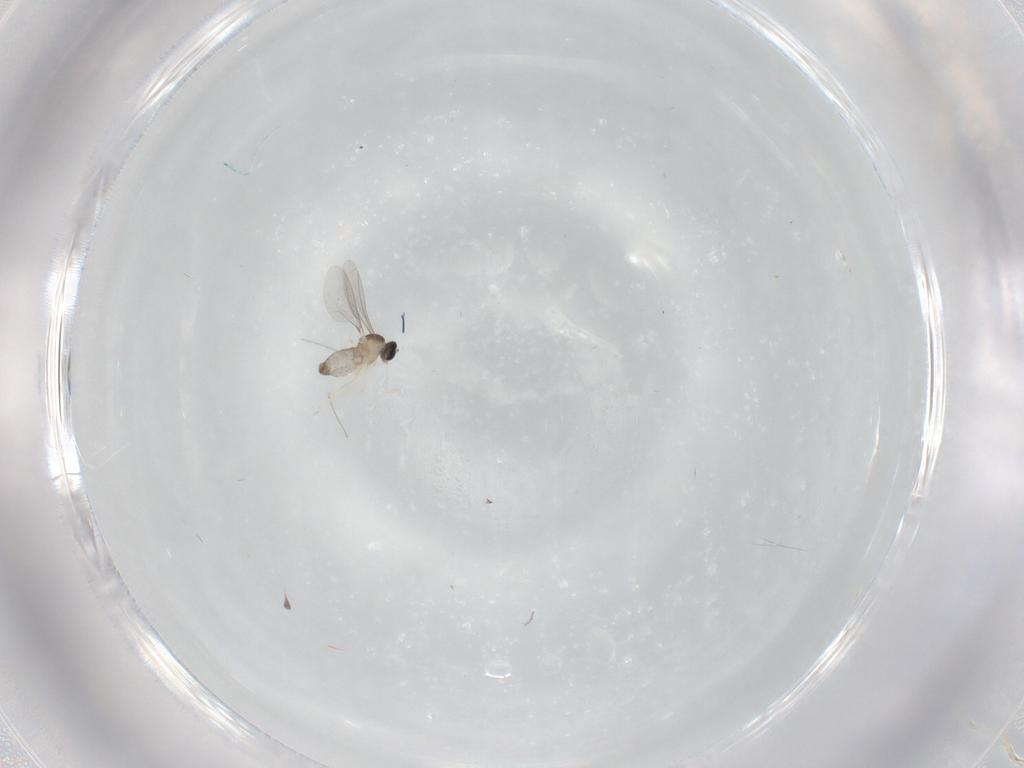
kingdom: Animalia
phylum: Arthropoda
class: Insecta
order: Diptera
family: Cecidomyiidae
